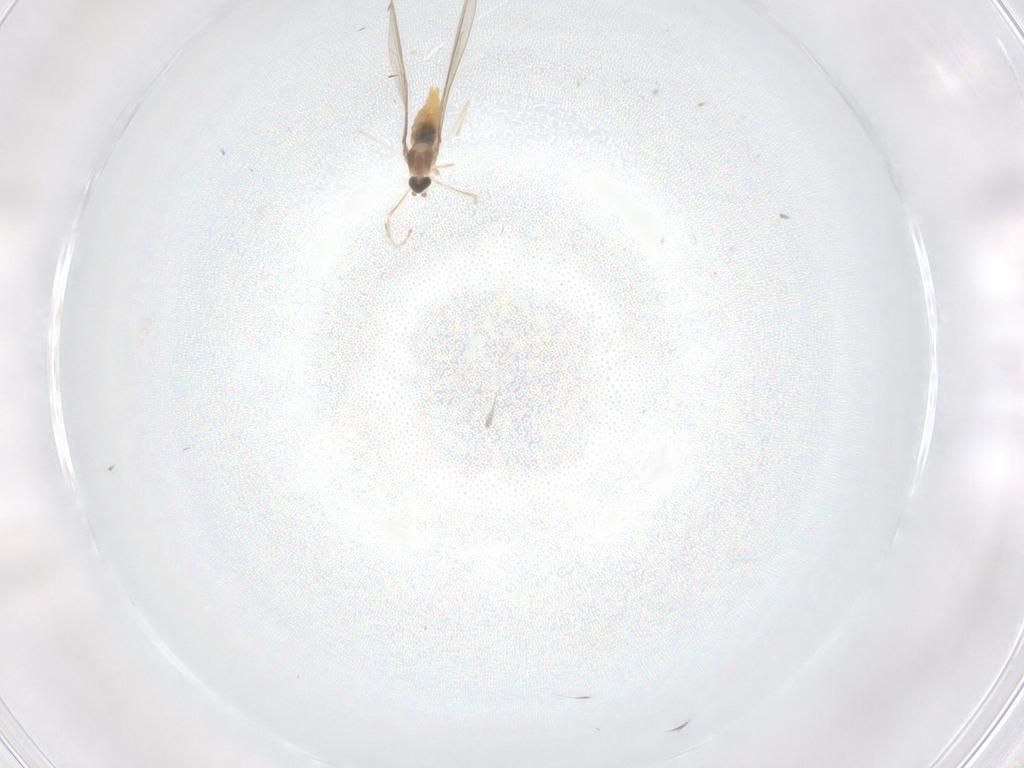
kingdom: Animalia
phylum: Arthropoda
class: Insecta
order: Diptera
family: Cecidomyiidae
